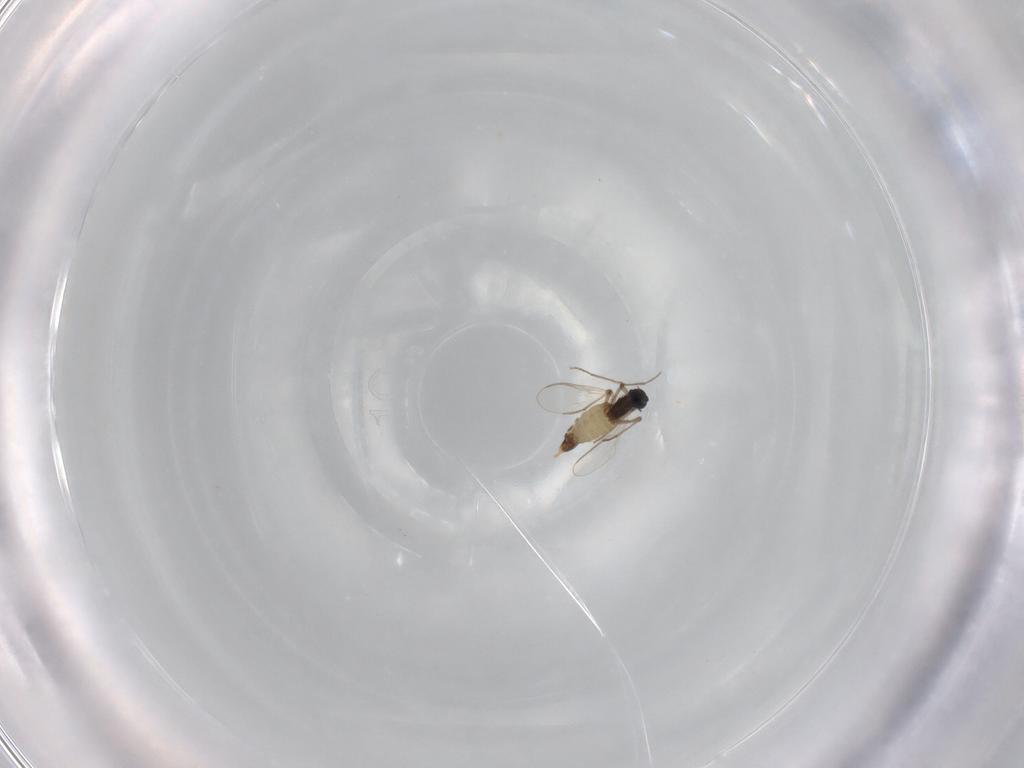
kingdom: Animalia
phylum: Arthropoda
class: Insecta
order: Diptera
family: Chironomidae
